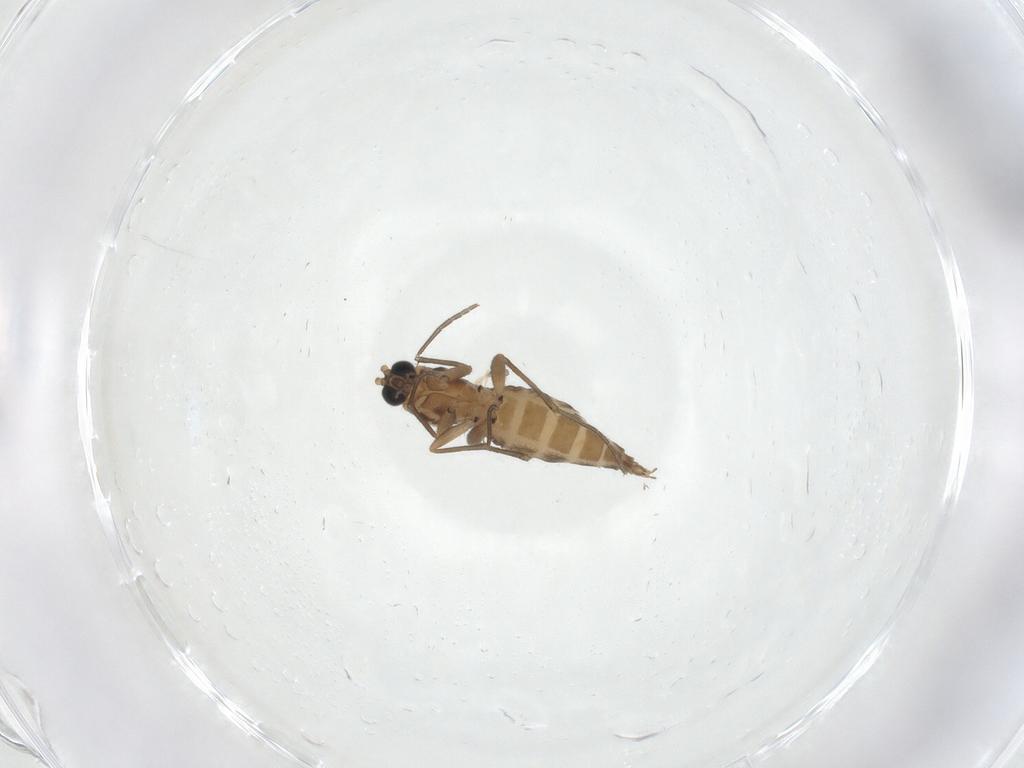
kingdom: Animalia
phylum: Arthropoda
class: Insecta
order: Diptera
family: Sciaridae
